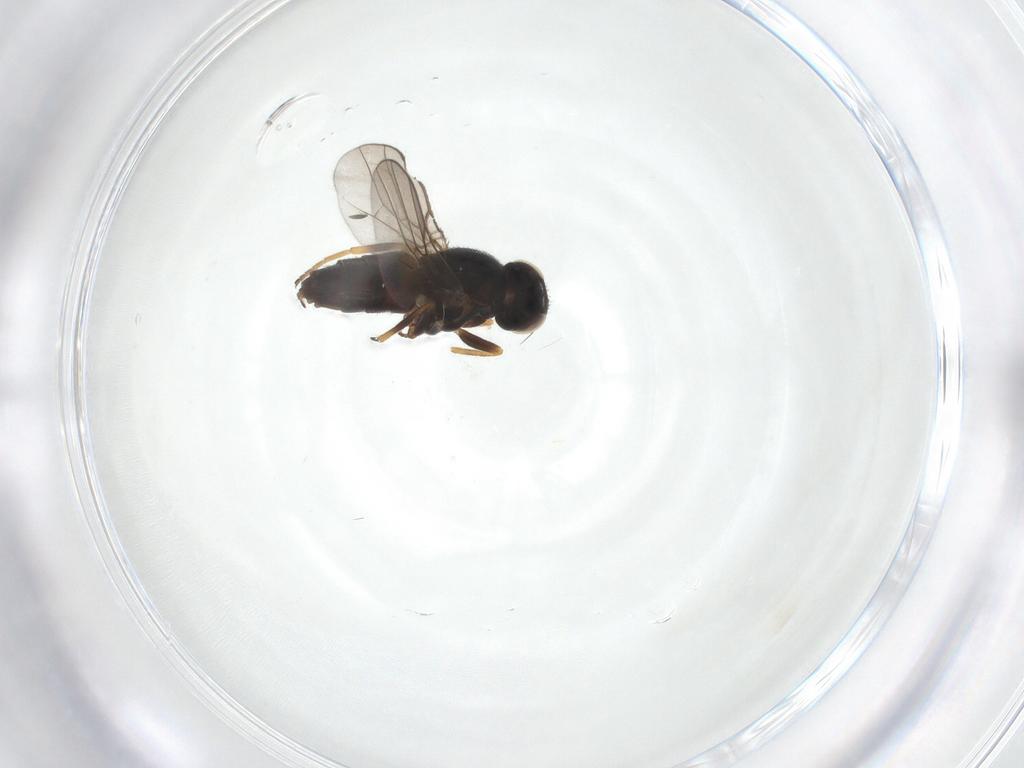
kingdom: Animalia
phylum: Arthropoda
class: Insecta
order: Diptera
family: Chloropidae
